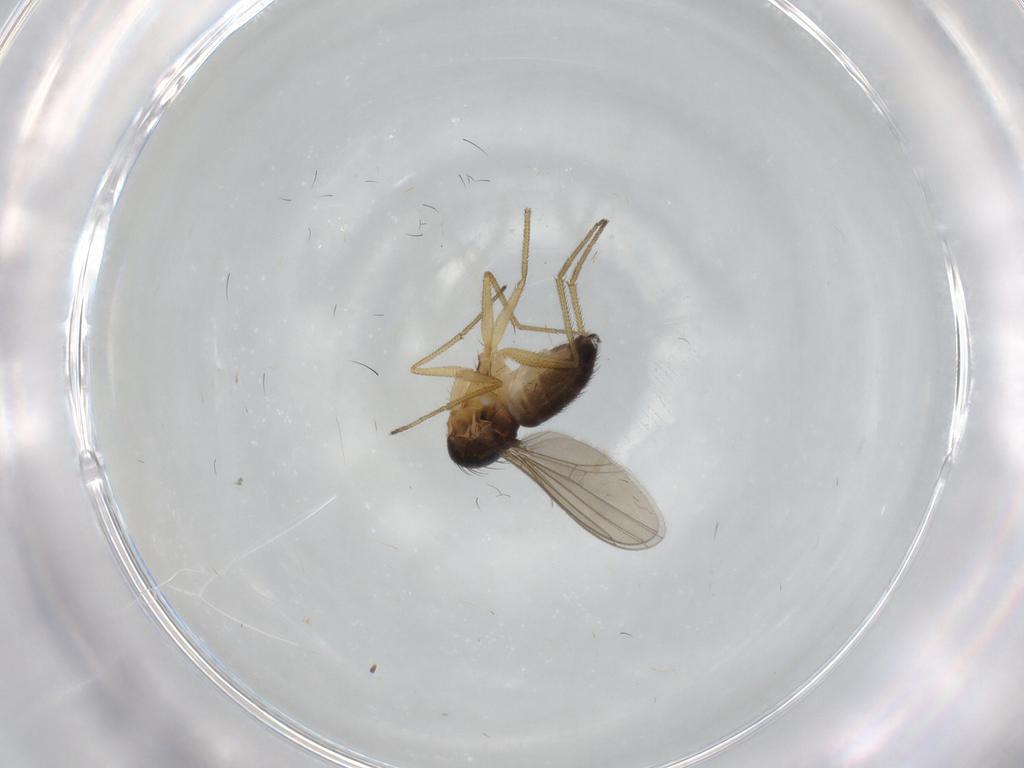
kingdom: Animalia
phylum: Arthropoda
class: Insecta
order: Diptera
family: Dolichopodidae
